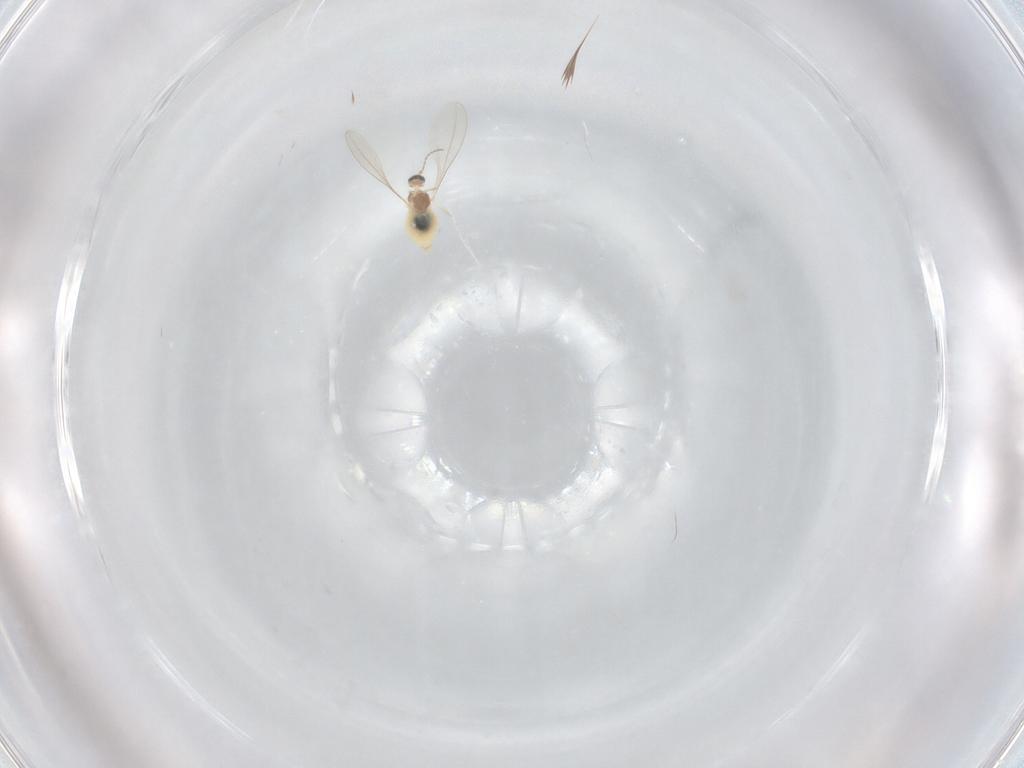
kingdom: Animalia
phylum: Arthropoda
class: Insecta
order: Diptera
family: Cecidomyiidae
